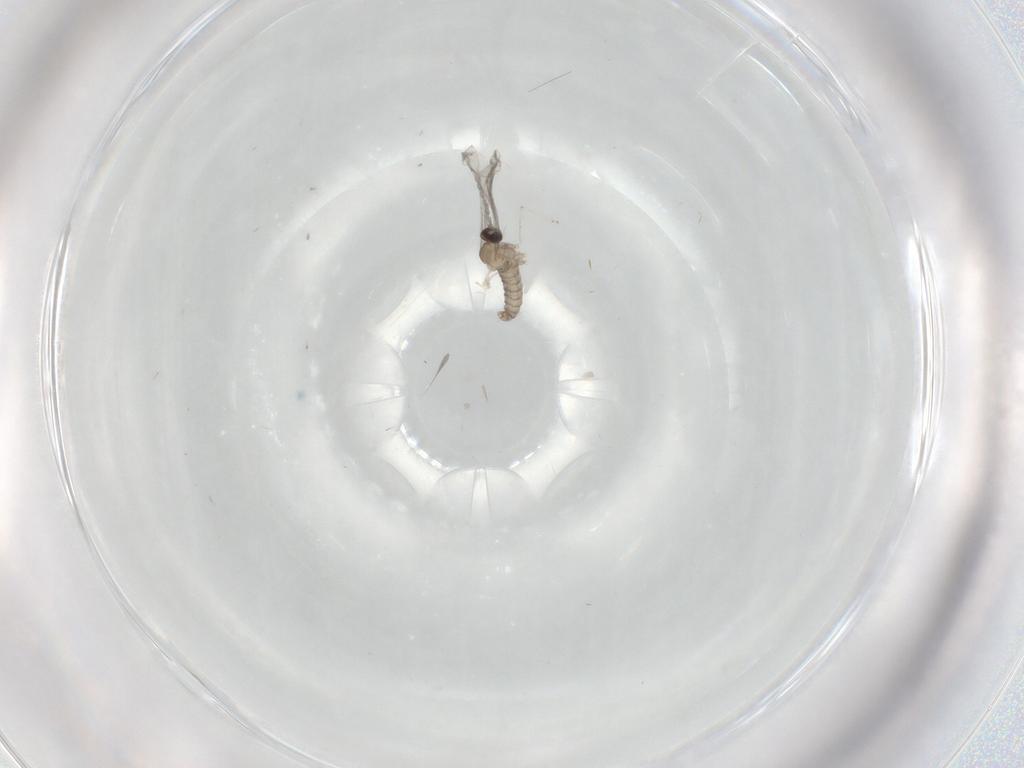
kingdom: Animalia
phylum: Arthropoda
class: Insecta
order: Diptera
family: Cecidomyiidae
